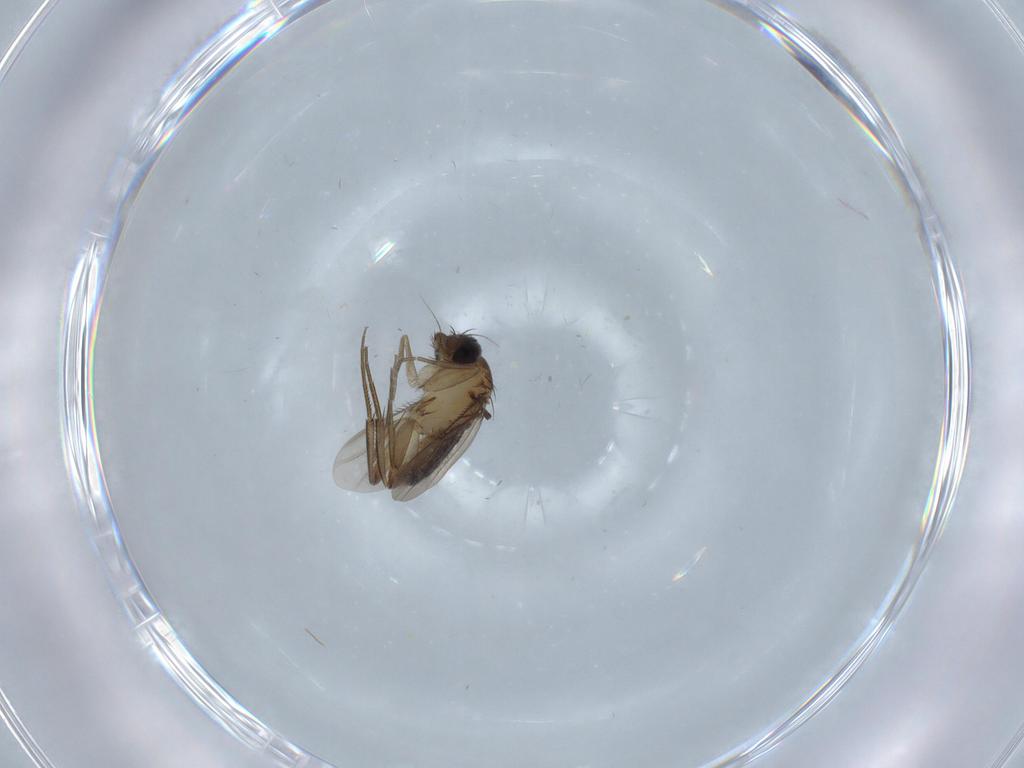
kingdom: Animalia
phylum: Arthropoda
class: Insecta
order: Diptera
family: Phoridae
